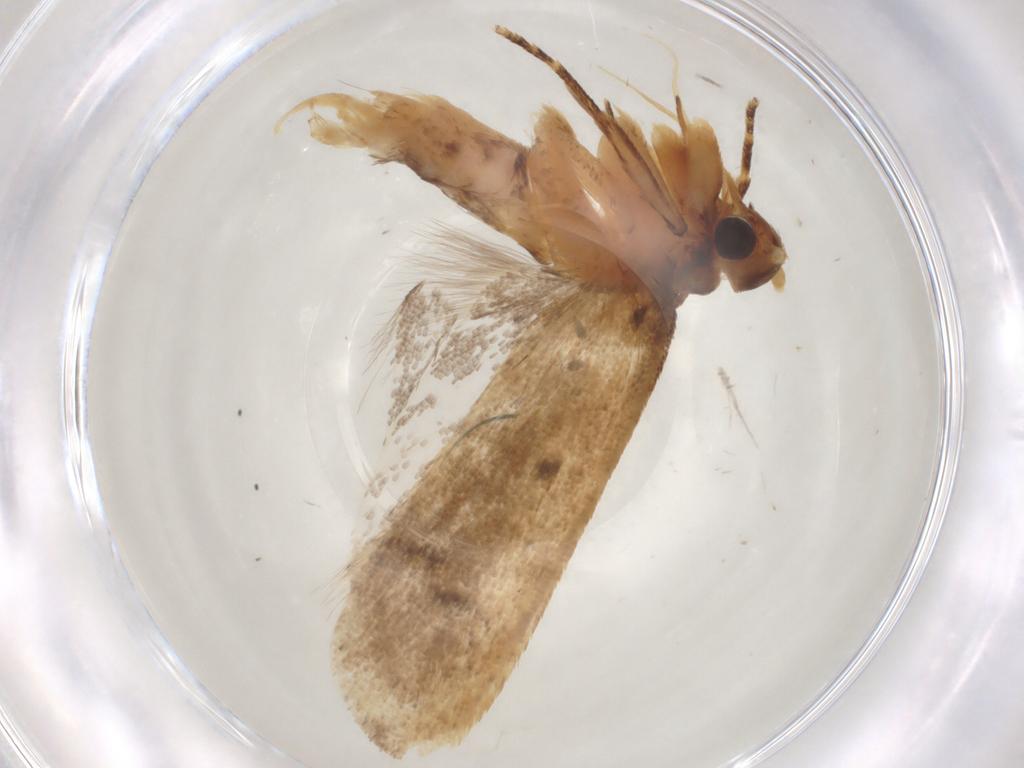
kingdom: Animalia
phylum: Arthropoda
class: Insecta
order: Lepidoptera
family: Lecithoceridae
